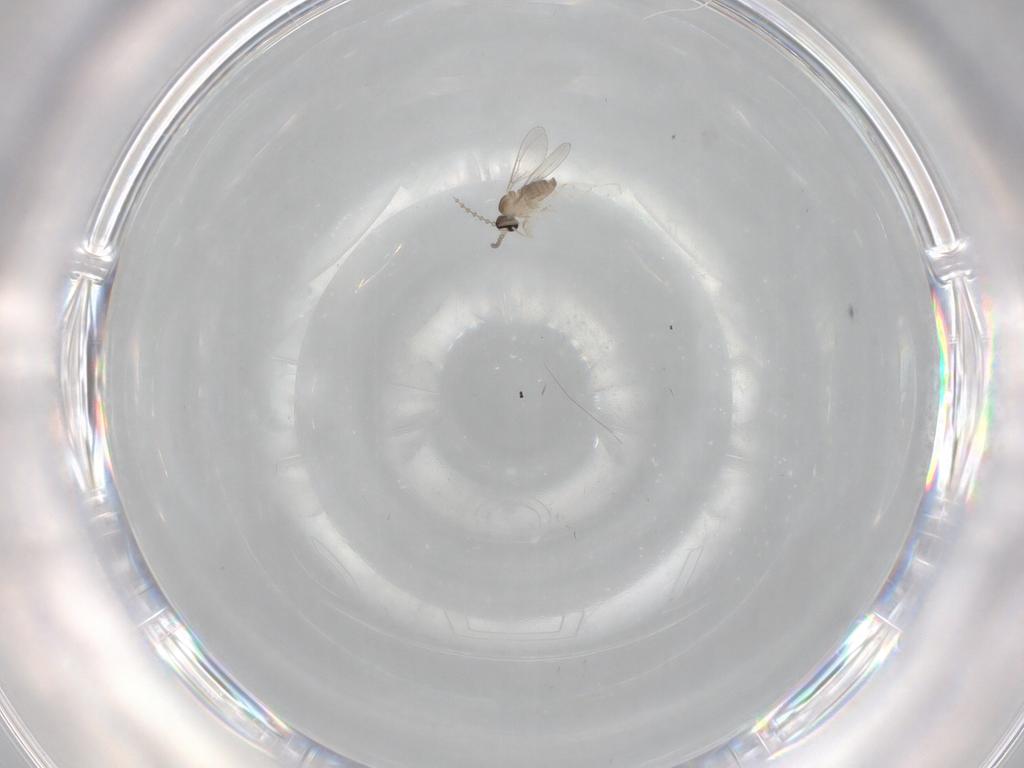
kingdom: Animalia
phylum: Arthropoda
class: Insecta
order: Diptera
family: Cecidomyiidae
